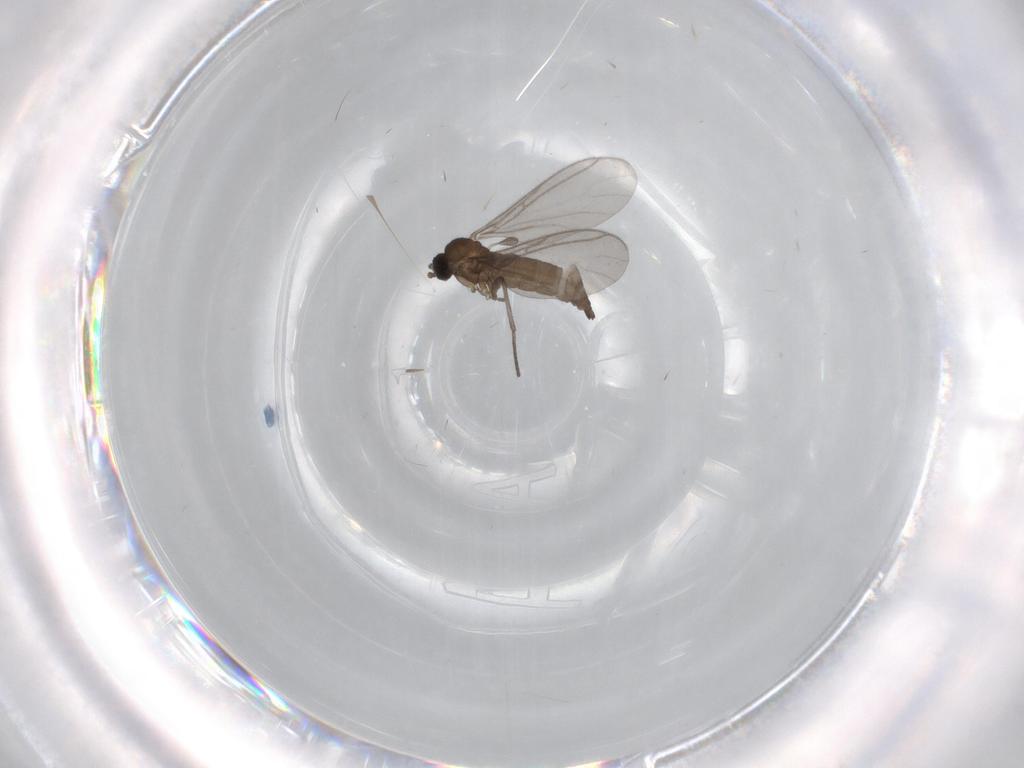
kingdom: Animalia
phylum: Arthropoda
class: Insecta
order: Diptera
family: Sciaridae
